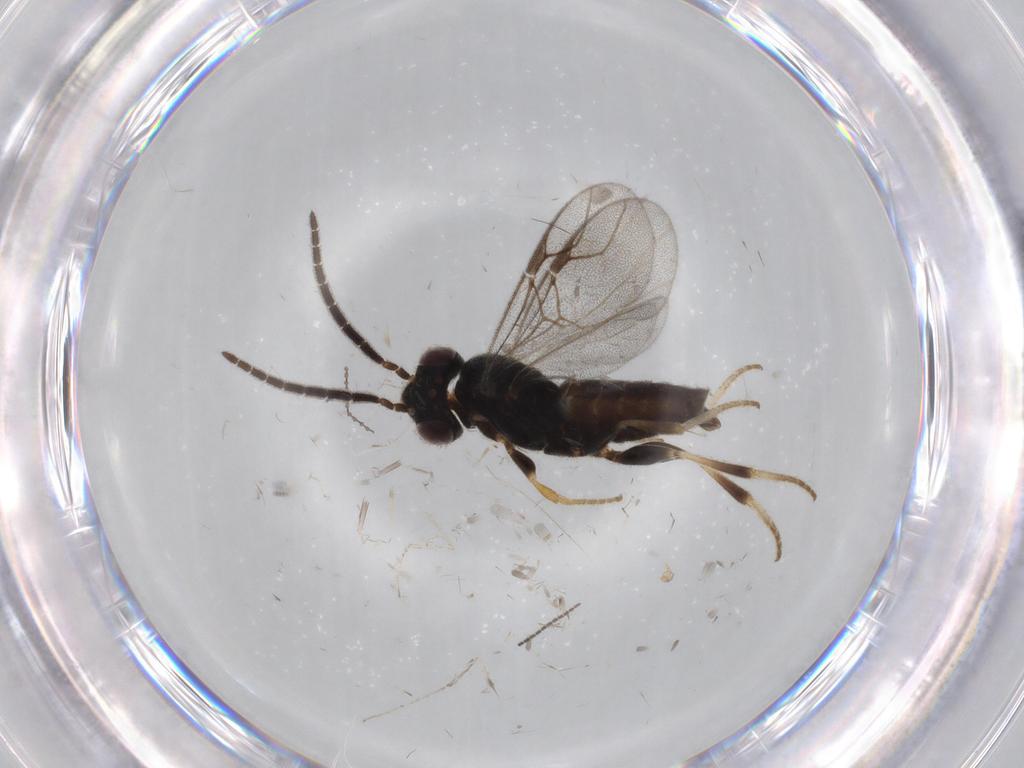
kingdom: Animalia
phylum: Arthropoda
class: Insecta
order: Hymenoptera
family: Dryinidae
